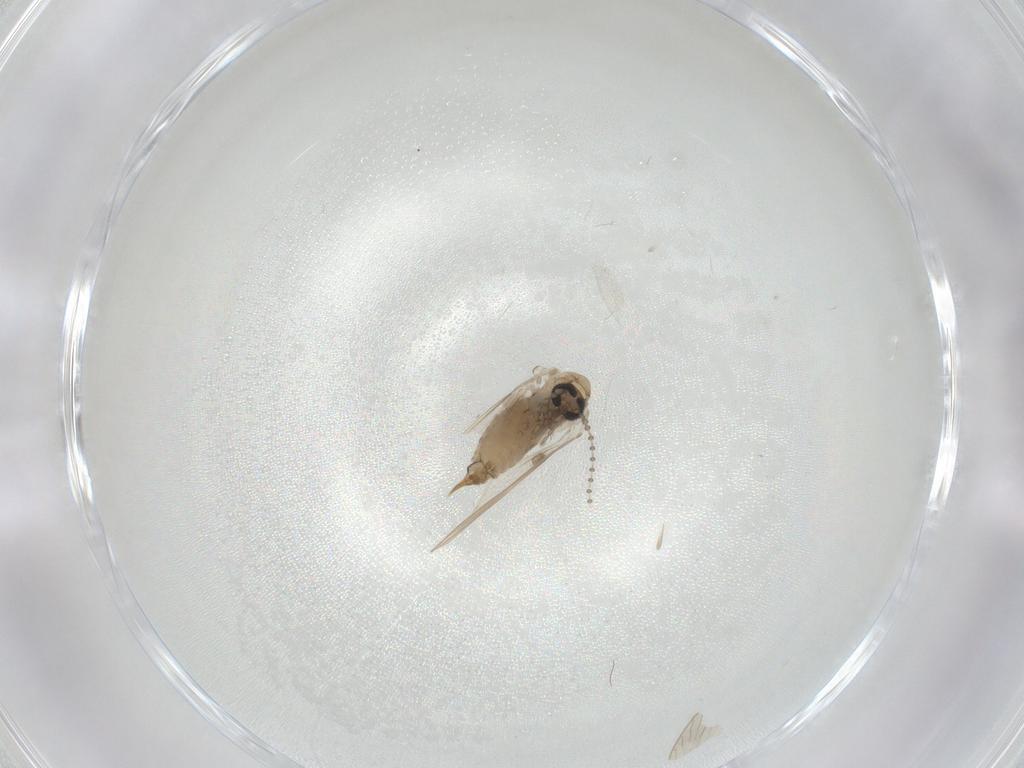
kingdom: Animalia
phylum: Arthropoda
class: Insecta
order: Diptera
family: Psychodidae
